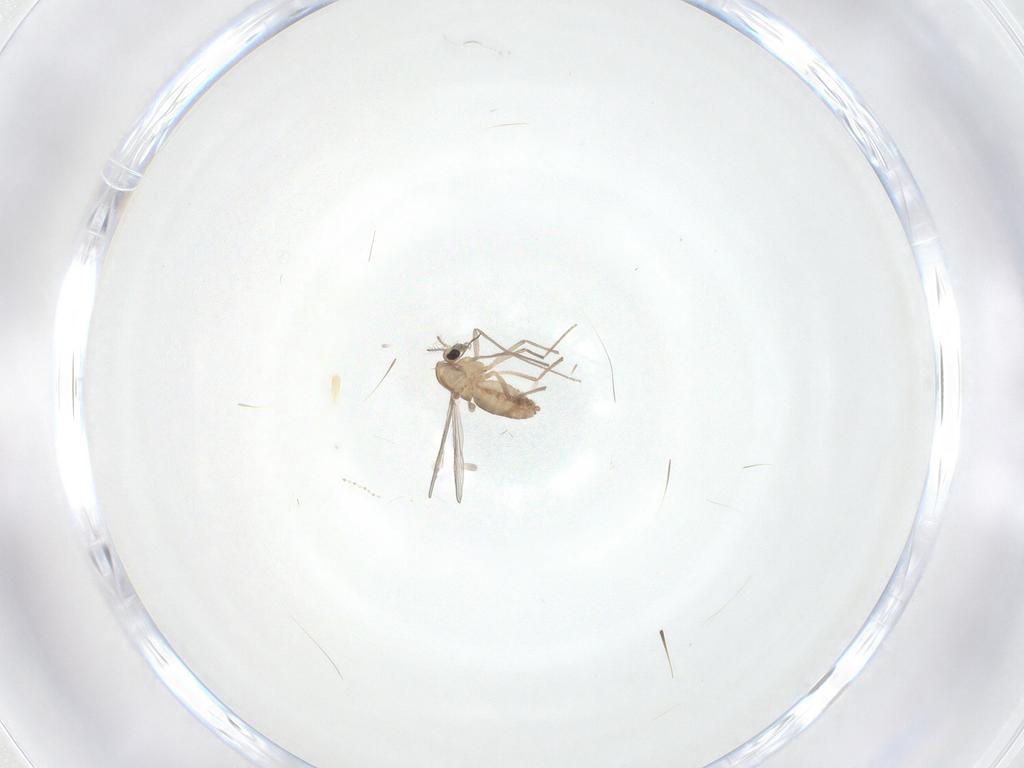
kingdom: Animalia
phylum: Arthropoda
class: Insecta
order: Diptera
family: Chironomidae
